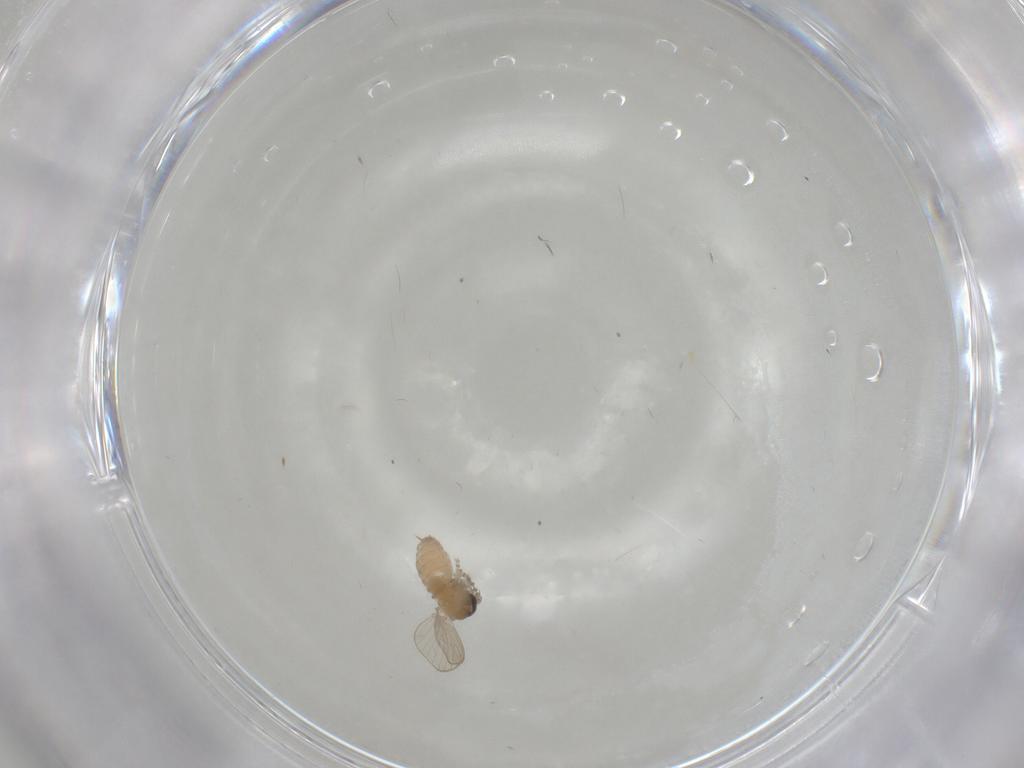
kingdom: Animalia
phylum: Arthropoda
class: Insecta
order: Diptera
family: Psychodidae
